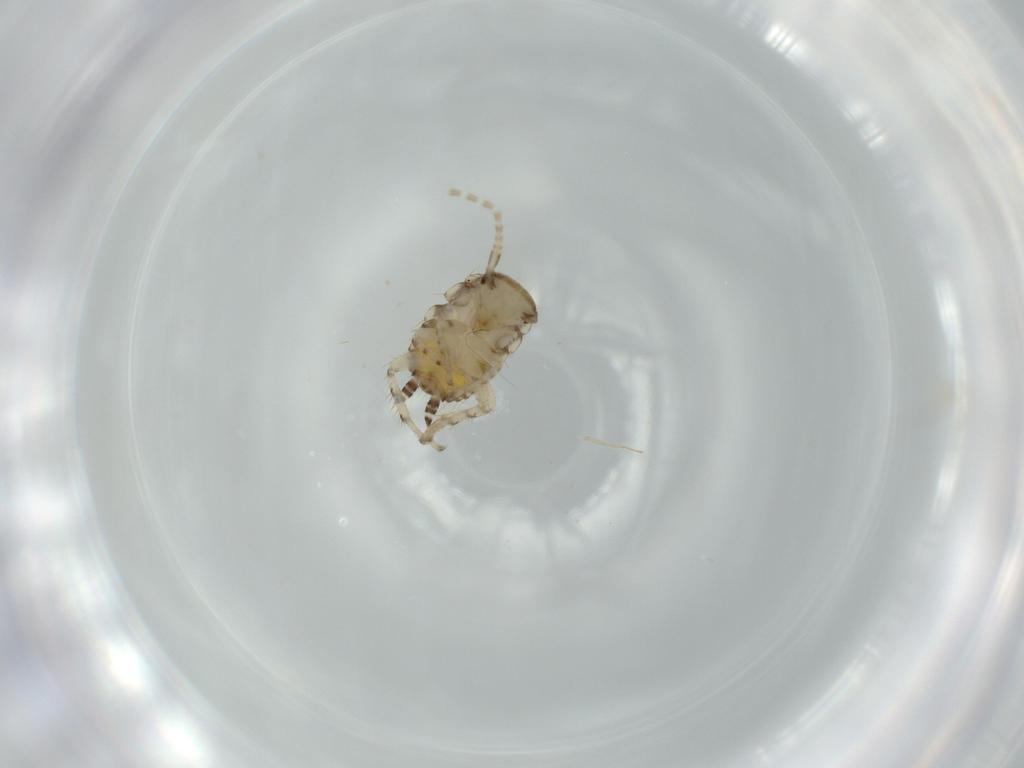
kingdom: Animalia
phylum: Arthropoda
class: Insecta
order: Blattodea
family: Ectobiidae
